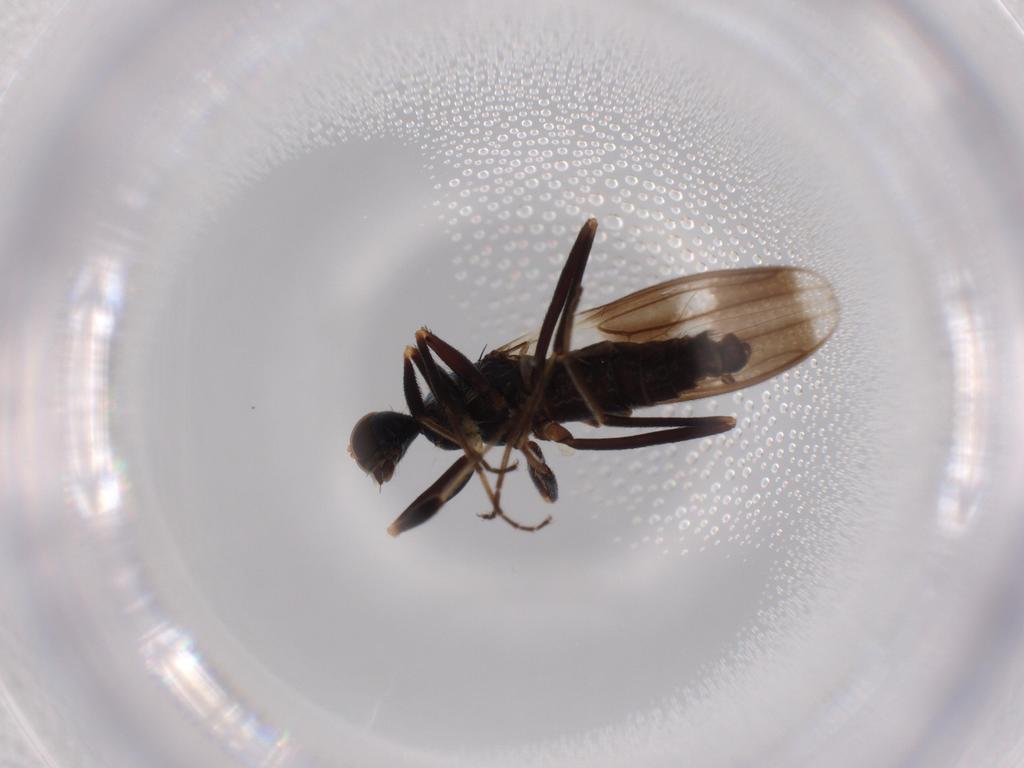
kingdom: Animalia
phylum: Arthropoda
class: Insecta
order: Diptera
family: Hybotidae
